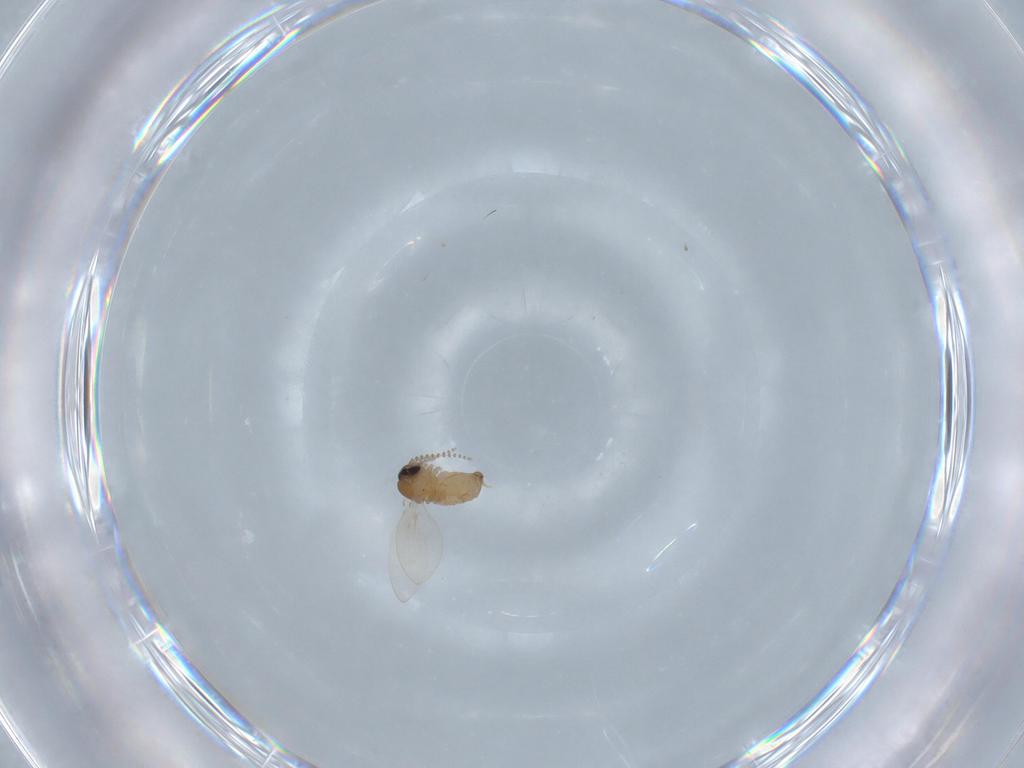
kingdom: Animalia
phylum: Arthropoda
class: Insecta
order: Diptera
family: Psychodidae
